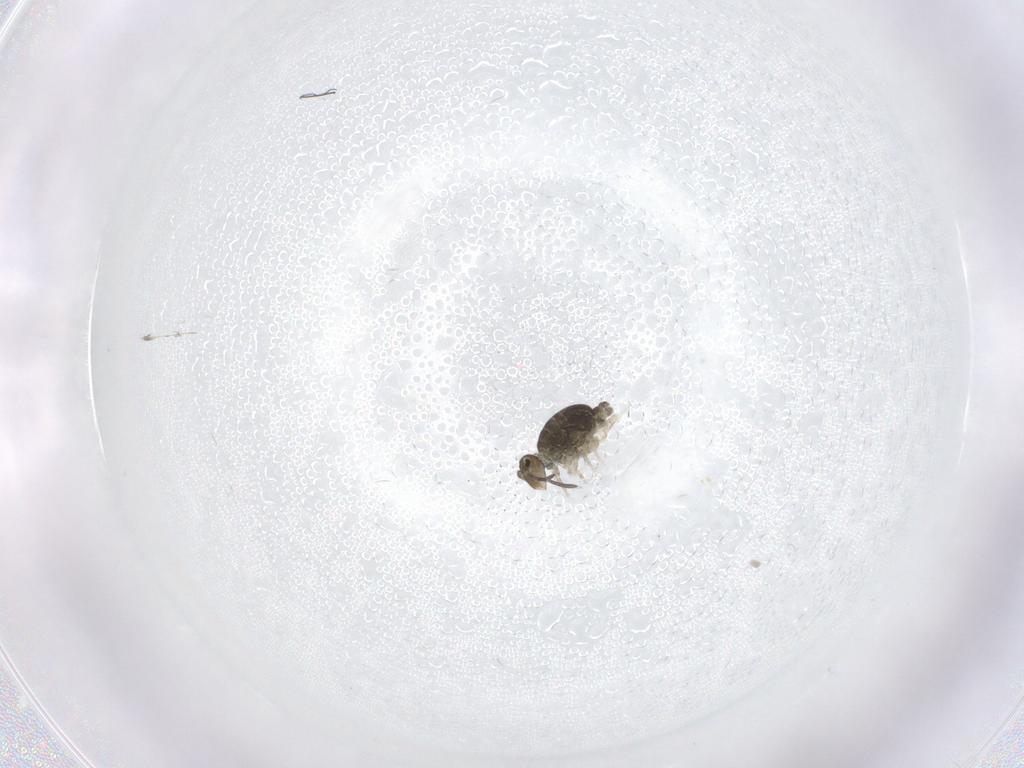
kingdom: Animalia
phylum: Arthropoda
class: Collembola
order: Symphypleona
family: Katiannidae
